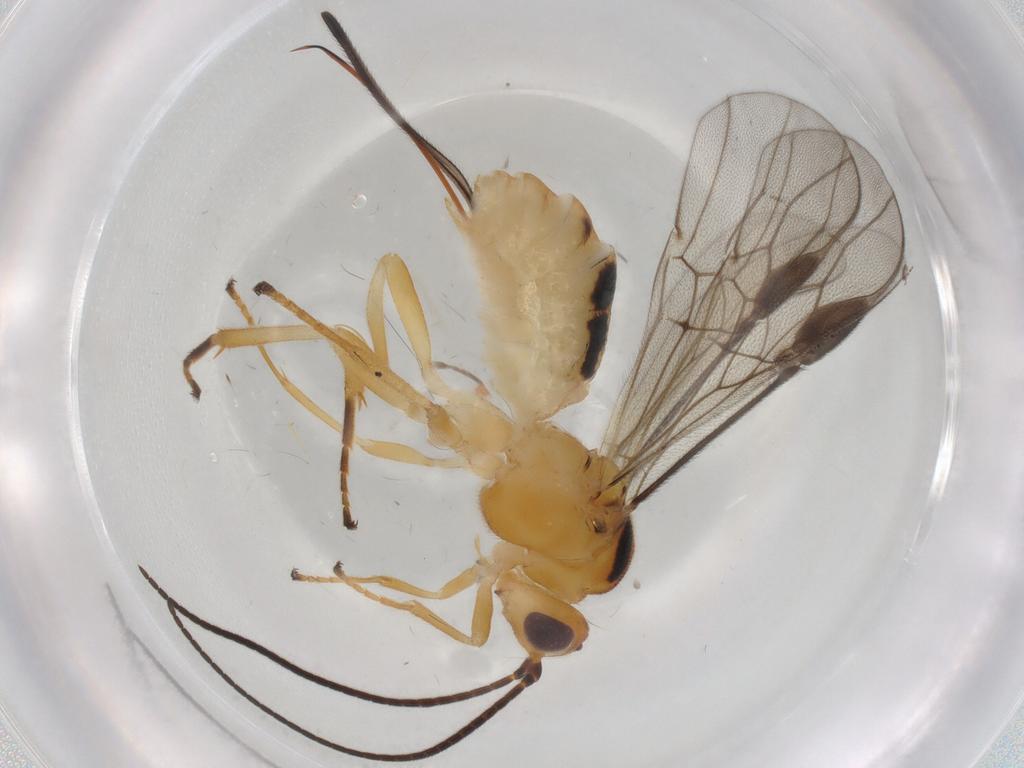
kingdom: Animalia
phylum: Arthropoda
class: Insecta
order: Hymenoptera
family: Braconidae
